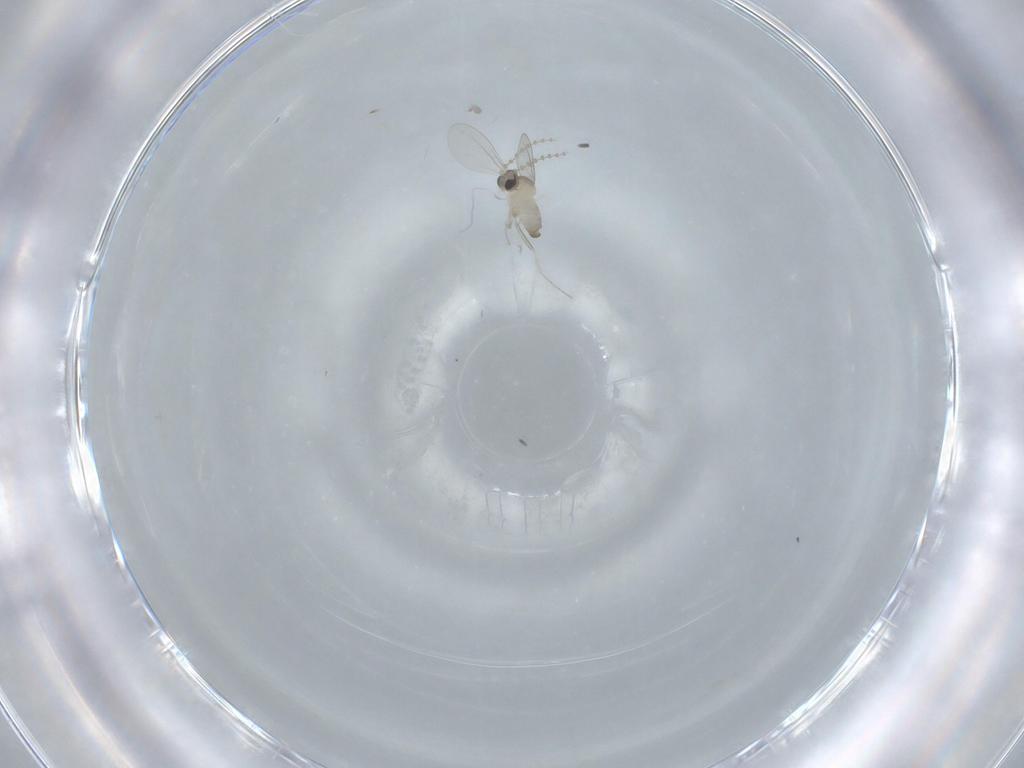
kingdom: Animalia
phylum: Arthropoda
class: Insecta
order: Diptera
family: Cecidomyiidae
